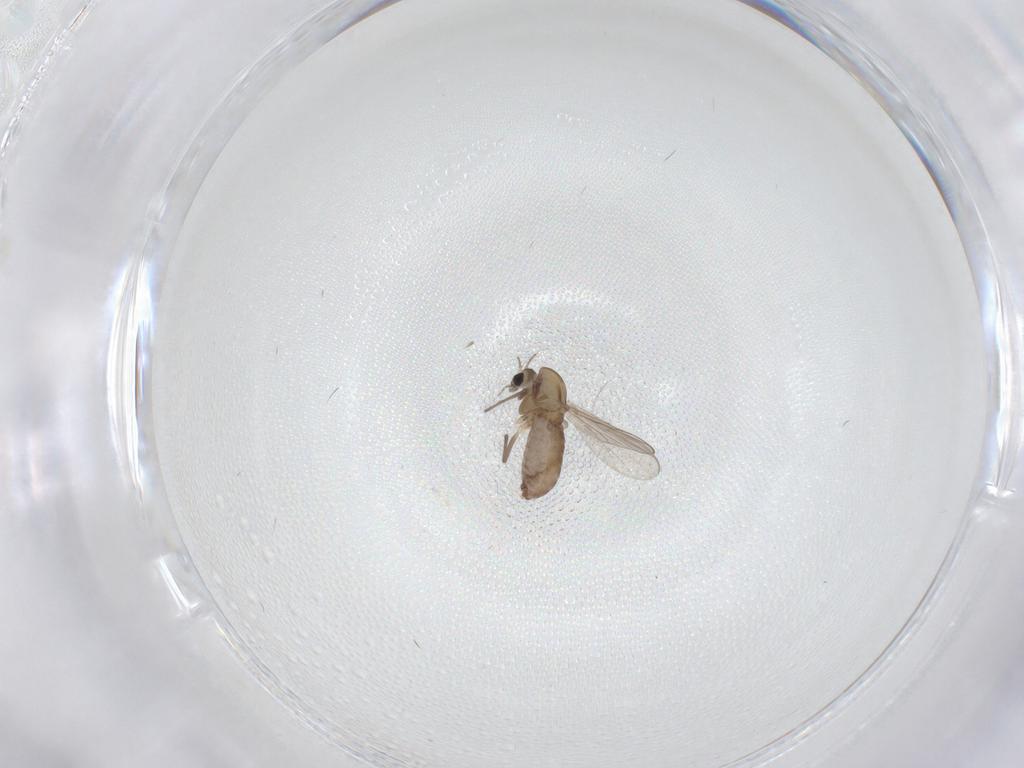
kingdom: Animalia
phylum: Arthropoda
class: Insecta
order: Diptera
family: Chironomidae
